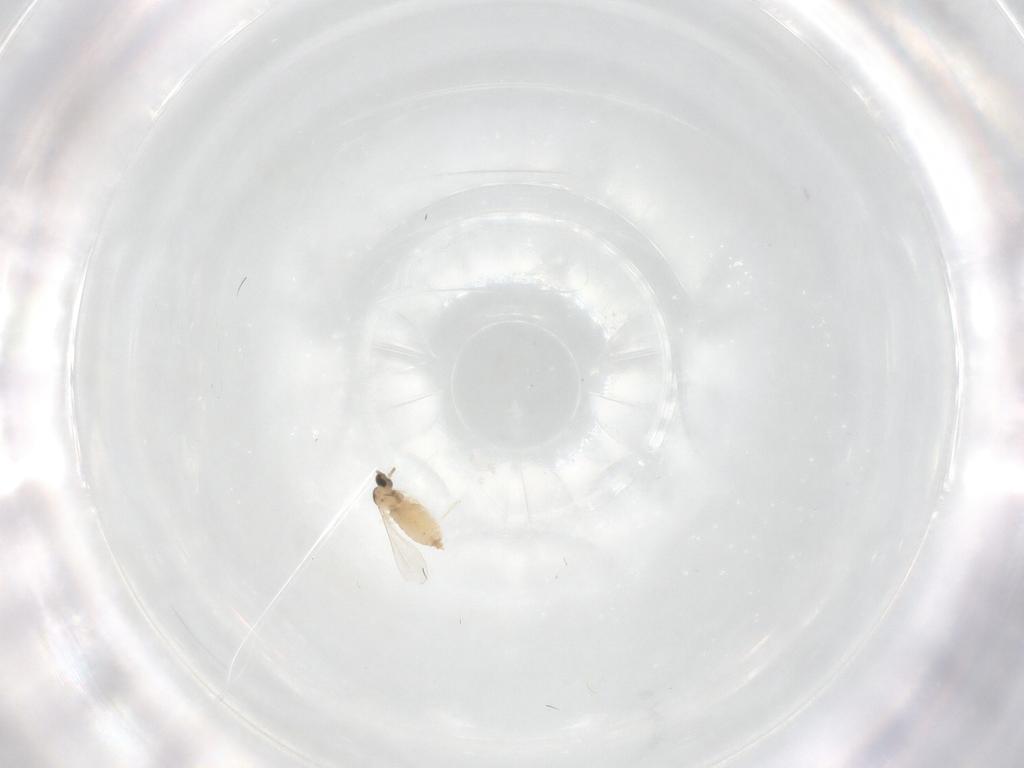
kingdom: Animalia
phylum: Arthropoda
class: Insecta
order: Diptera
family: Cecidomyiidae
